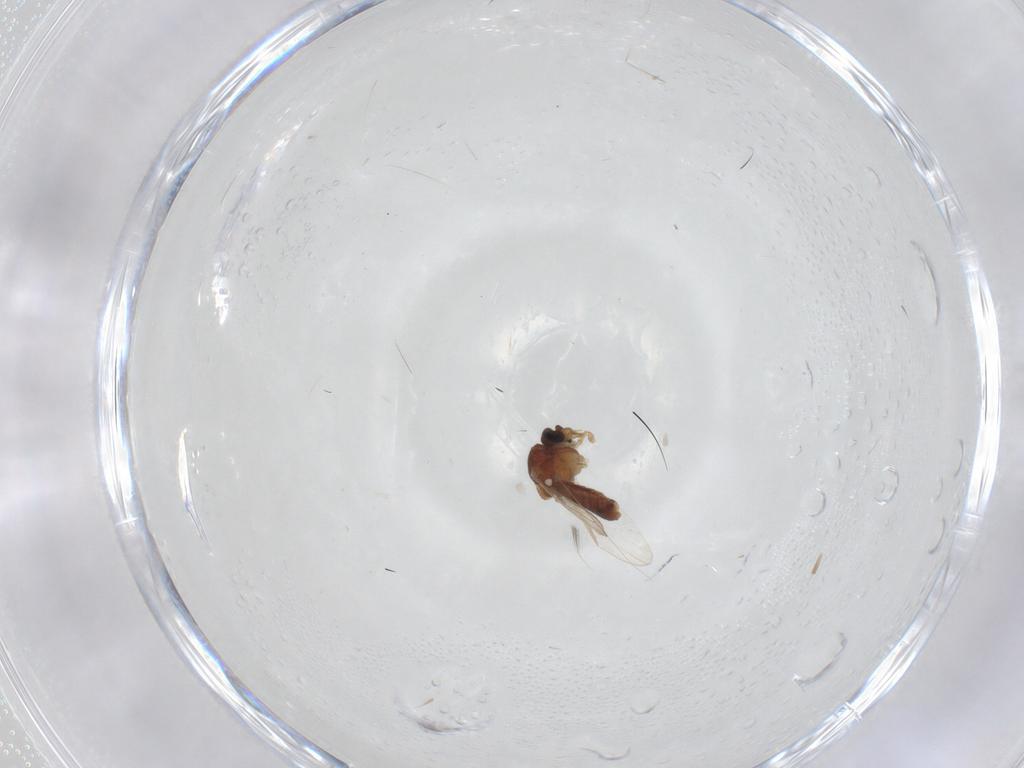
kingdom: Animalia
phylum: Arthropoda
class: Insecta
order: Diptera
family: Ceratopogonidae
